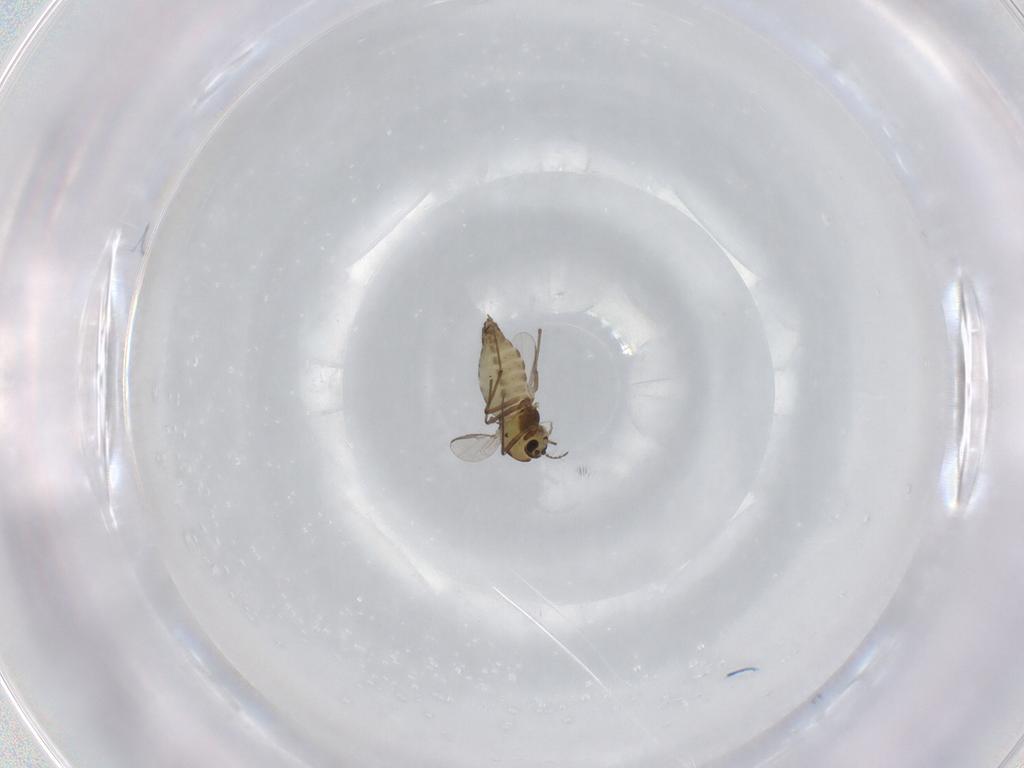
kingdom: Animalia
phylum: Arthropoda
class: Insecta
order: Diptera
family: Chironomidae
